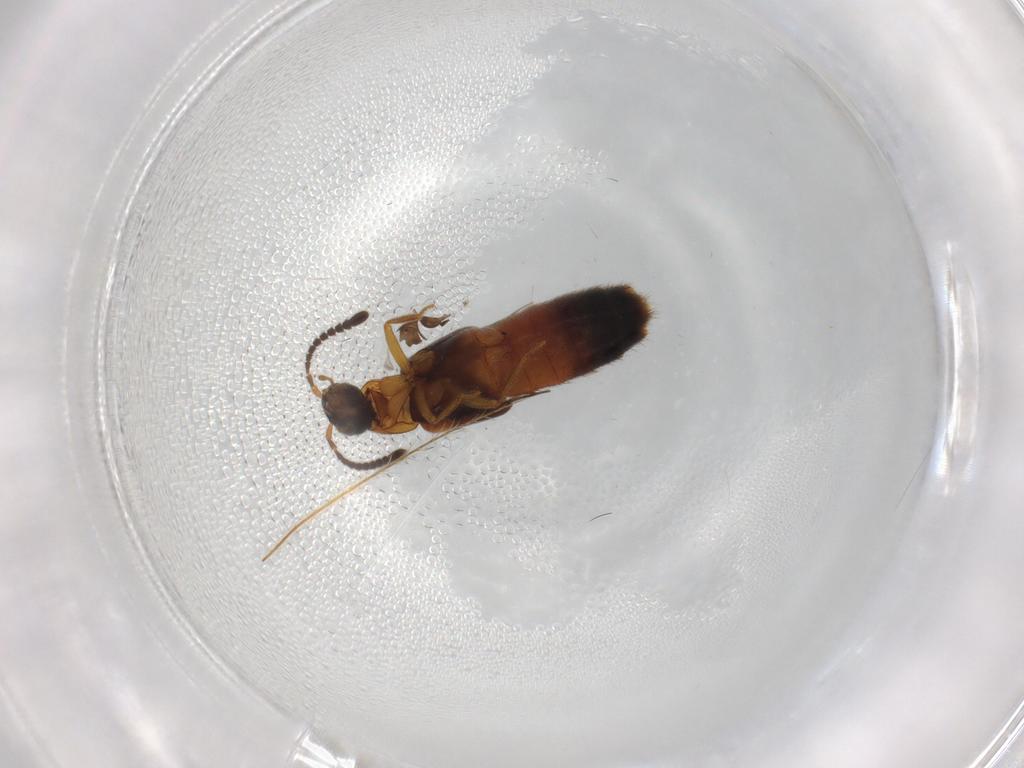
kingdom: Animalia
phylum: Arthropoda
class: Insecta
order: Coleoptera
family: Staphylinidae
